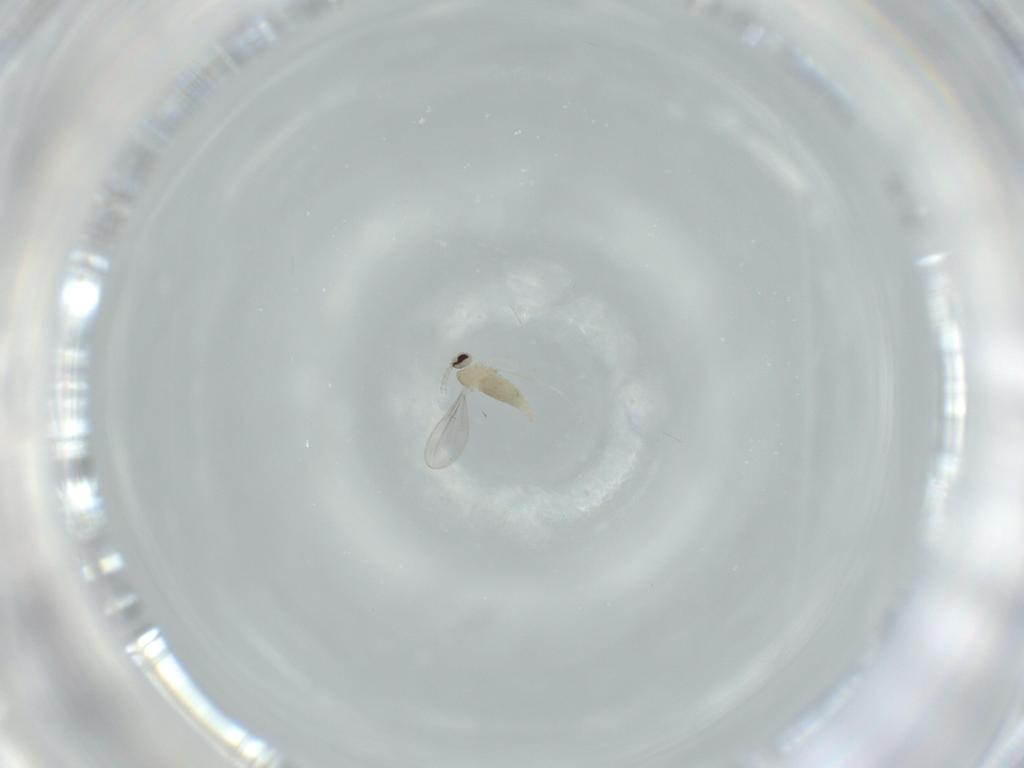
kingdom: Animalia
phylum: Arthropoda
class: Insecta
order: Diptera
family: Cecidomyiidae
